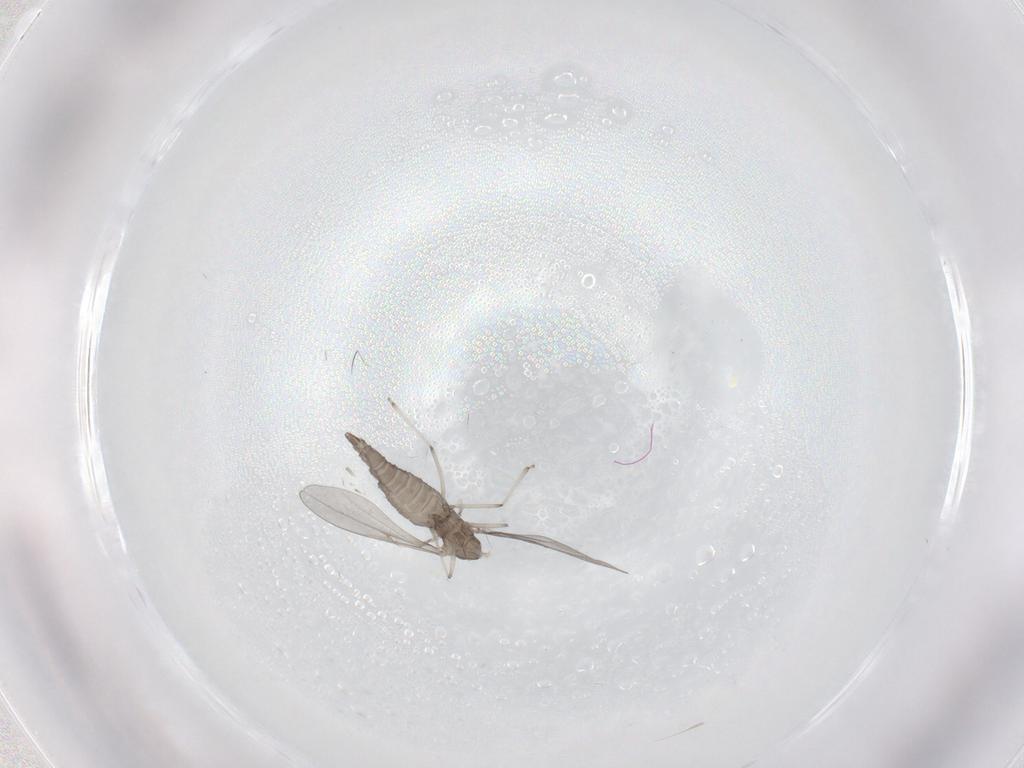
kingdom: Animalia
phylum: Arthropoda
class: Insecta
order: Diptera
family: Cecidomyiidae
